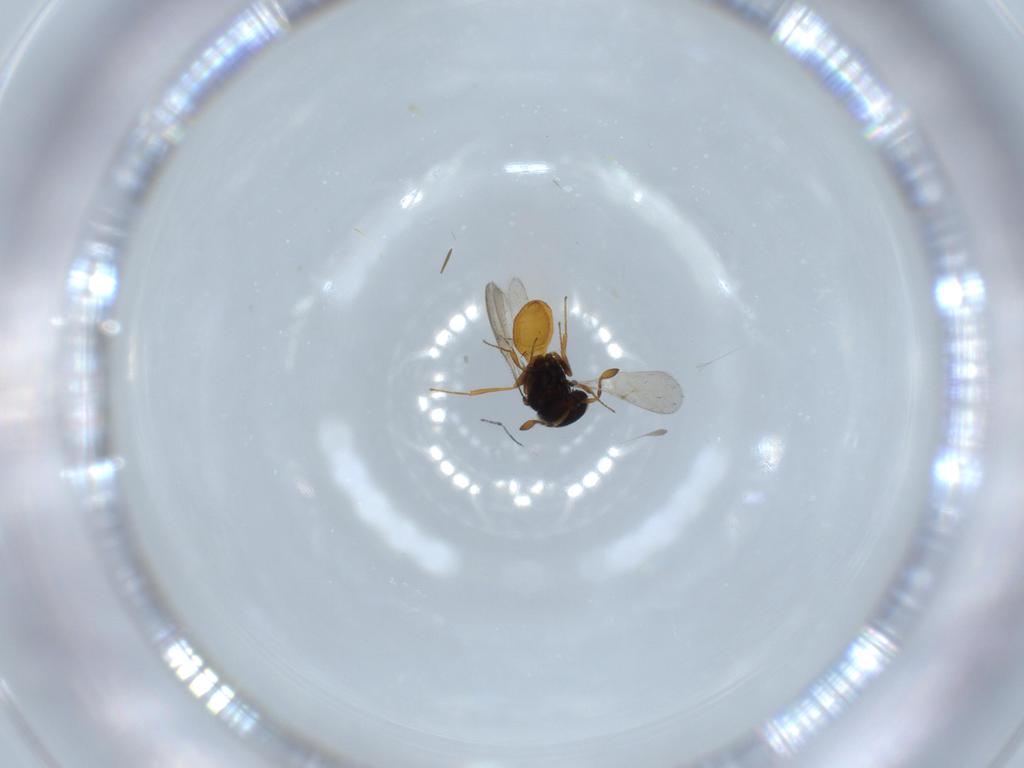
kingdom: Animalia
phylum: Arthropoda
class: Insecta
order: Hymenoptera
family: Scelionidae
